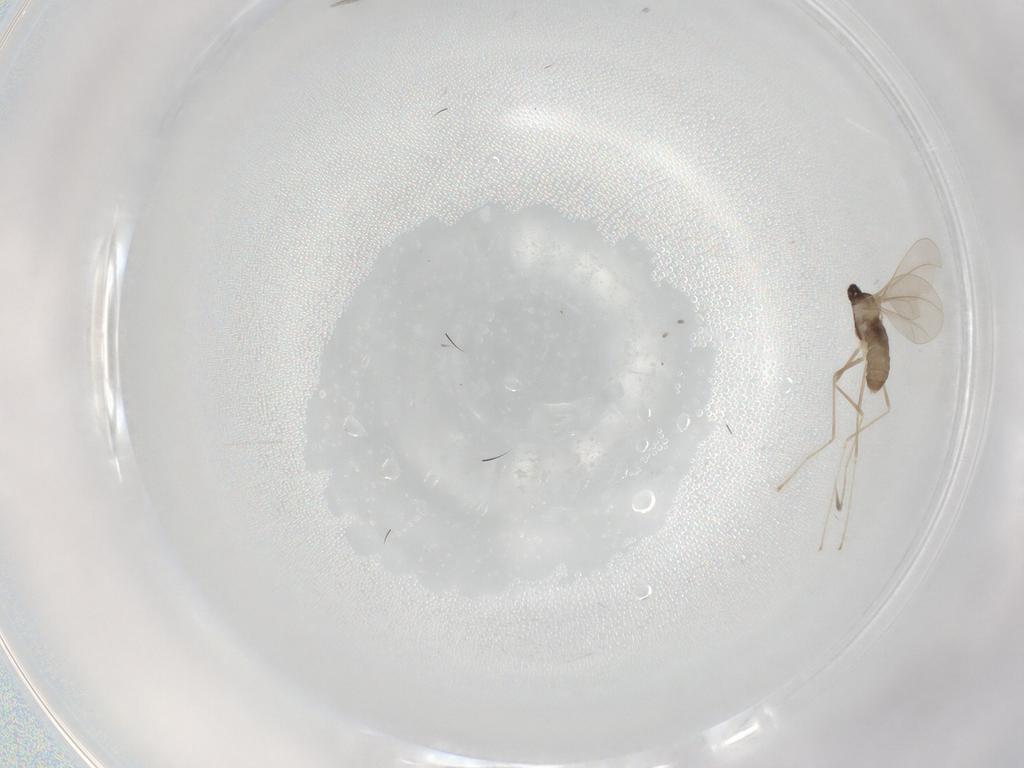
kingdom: Animalia
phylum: Arthropoda
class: Insecta
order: Diptera
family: Cecidomyiidae
